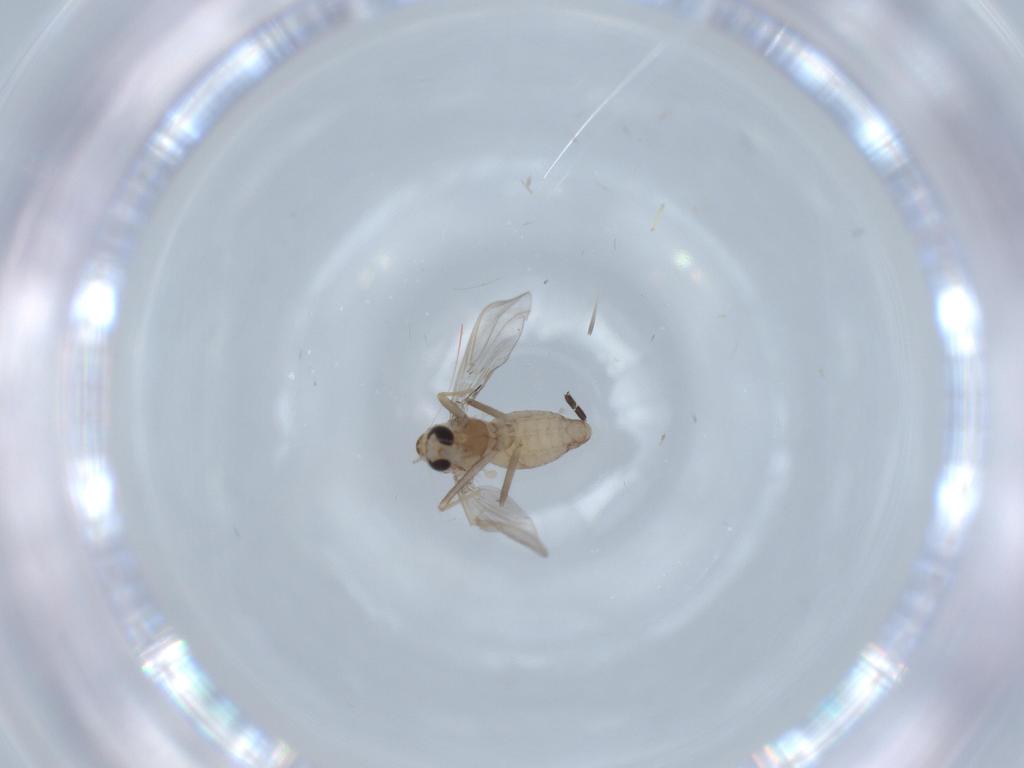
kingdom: Animalia
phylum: Arthropoda
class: Insecta
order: Diptera
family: Chironomidae
